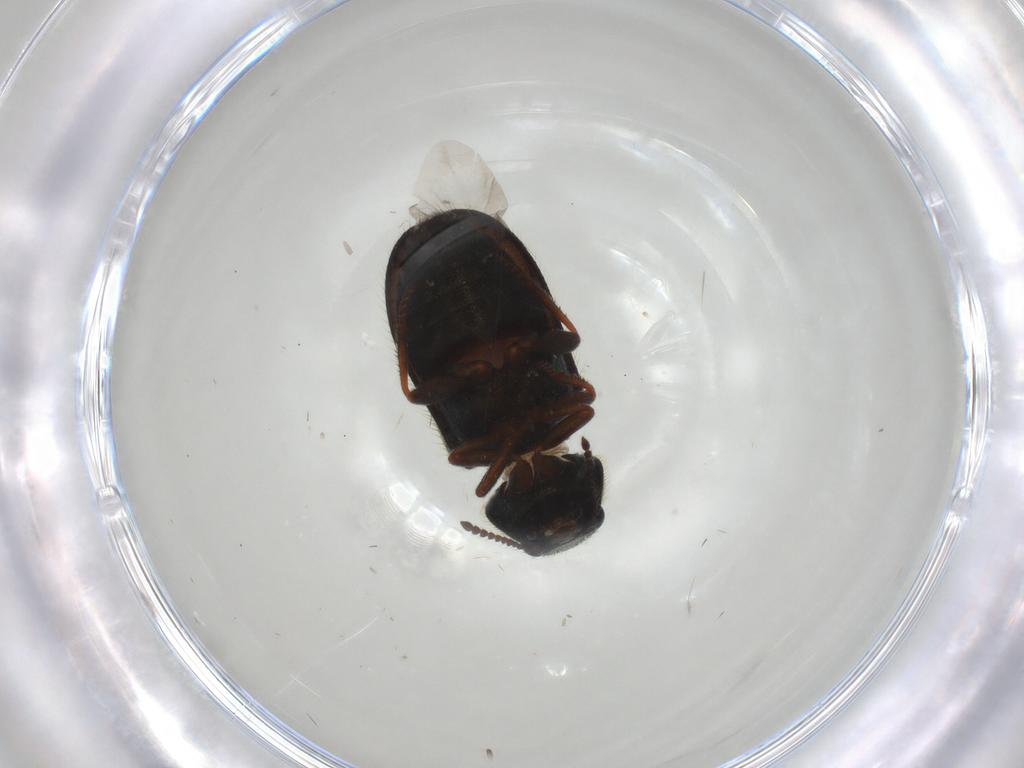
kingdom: Animalia
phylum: Arthropoda
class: Insecta
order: Coleoptera
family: Melyridae
